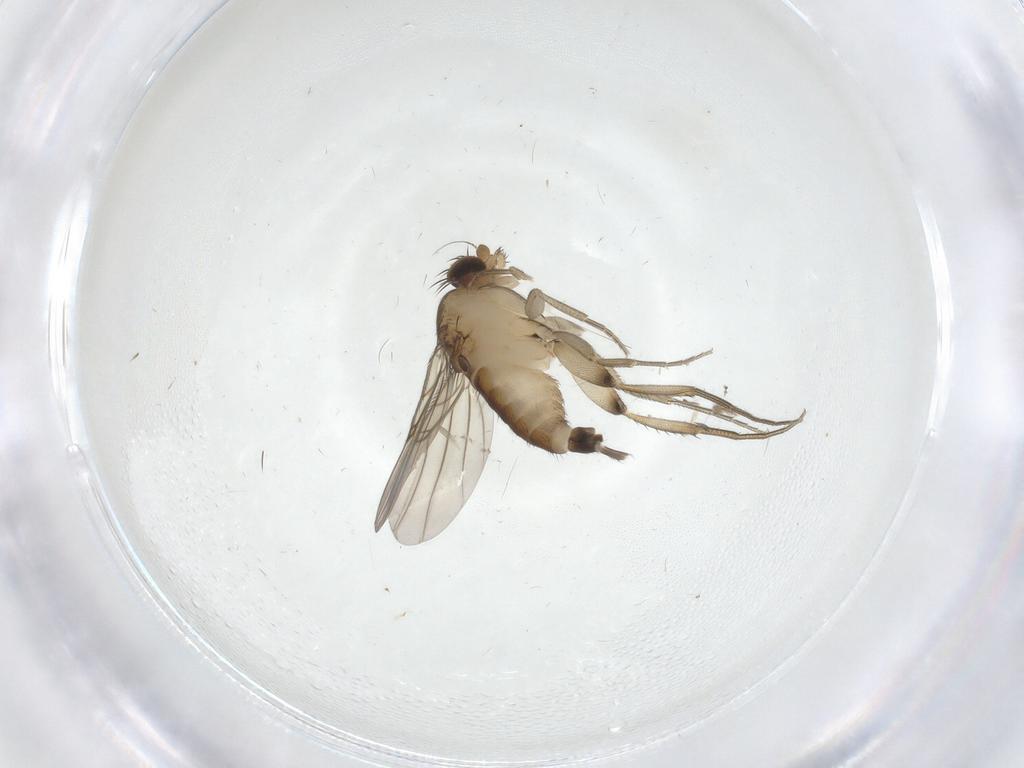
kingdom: Animalia
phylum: Arthropoda
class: Insecta
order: Diptera
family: Phoridae
